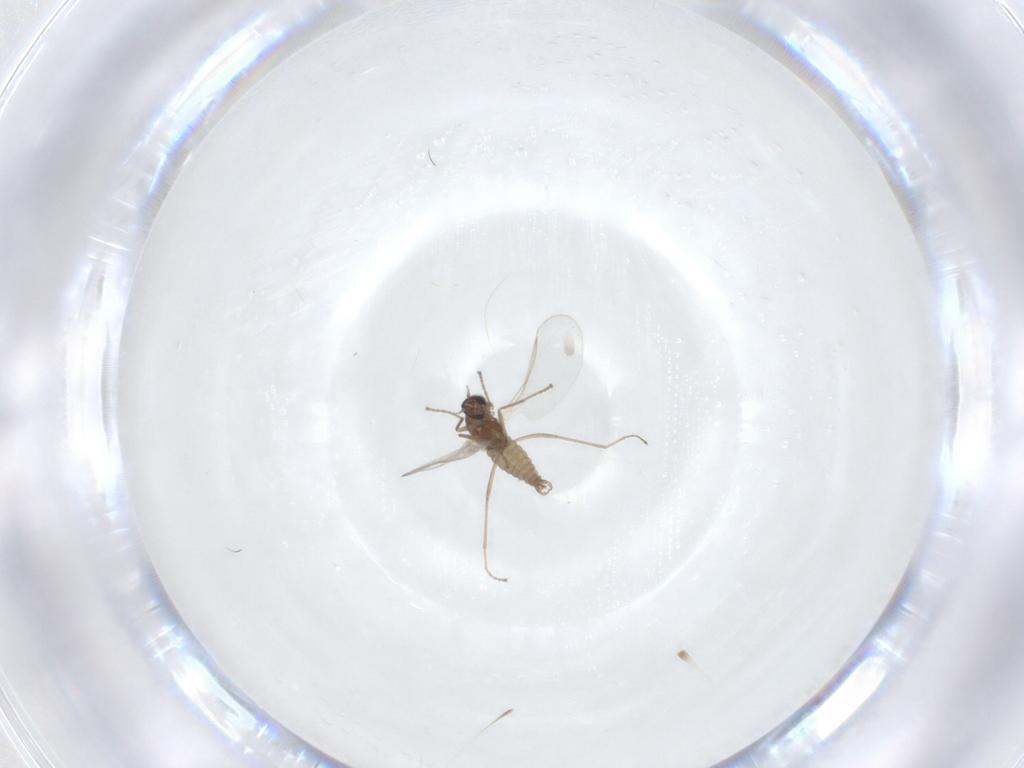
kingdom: Animalia
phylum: Arthropoda
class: Insecta
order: Diptera
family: Cecidomyiidae
